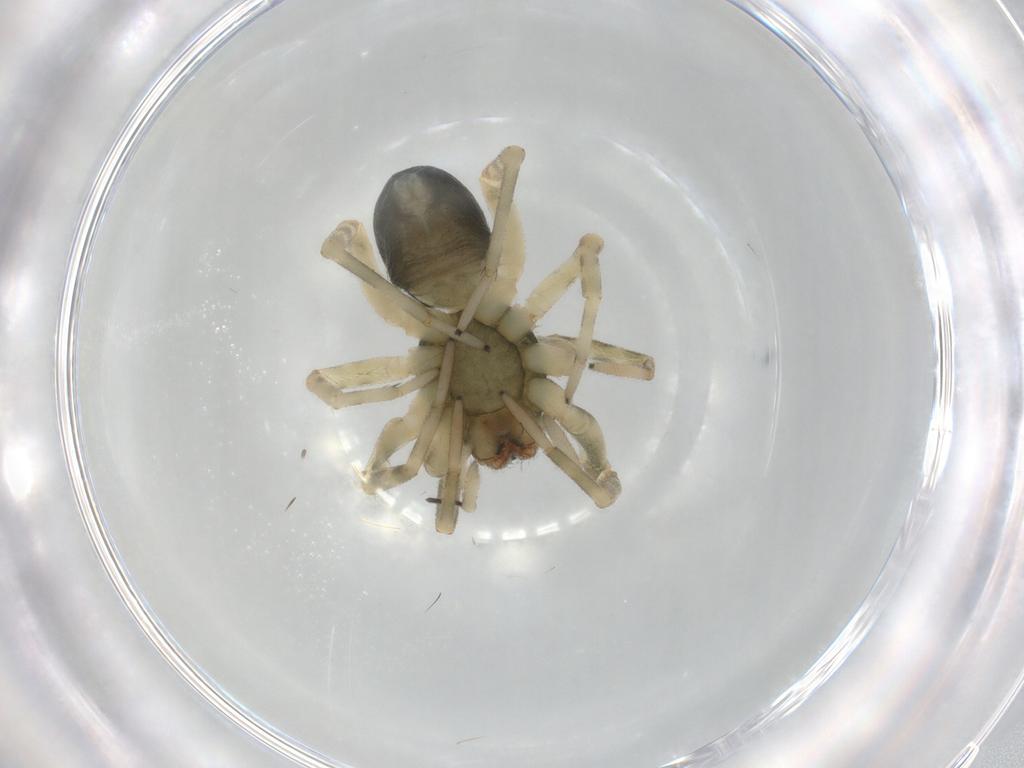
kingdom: Animalia
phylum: Arthropoda
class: Arachnida
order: Araneae
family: Trachelidae
